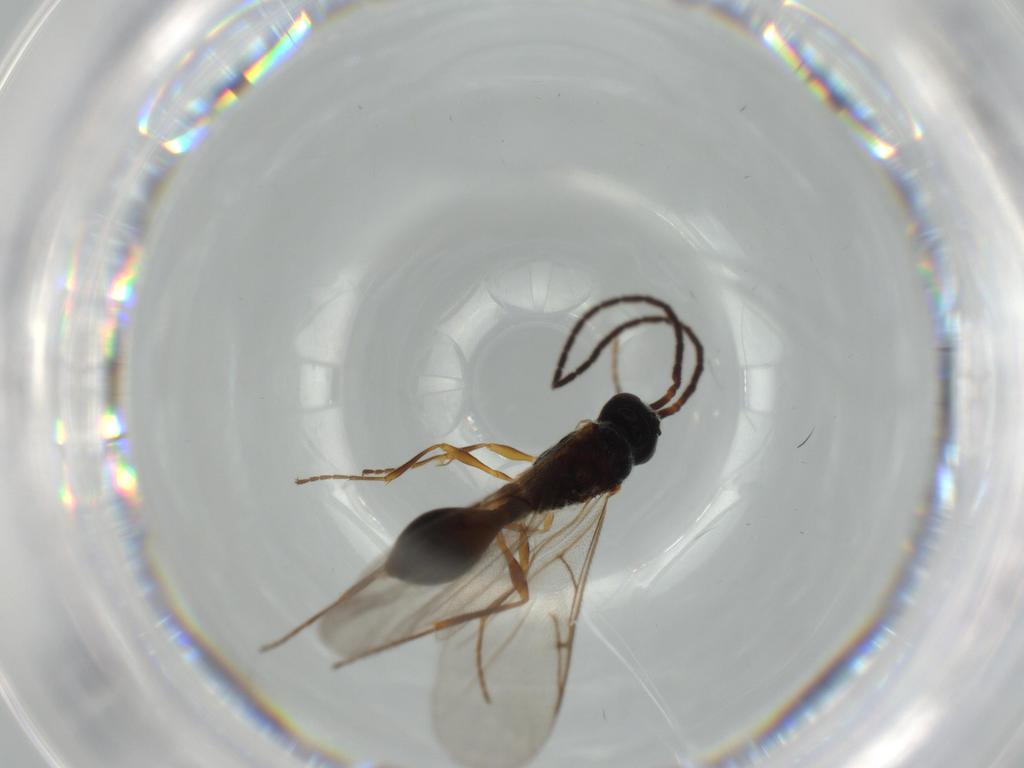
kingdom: Animalia
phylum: Arthropoda
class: Insecta
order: Hymenoptera
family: Diapriidae
